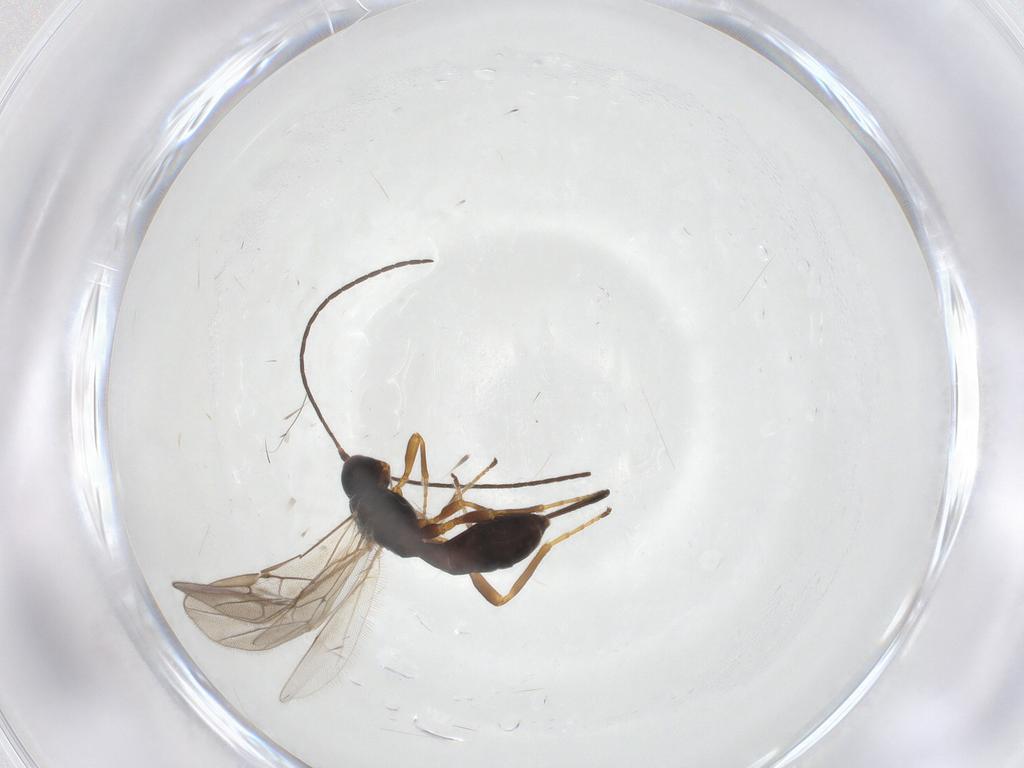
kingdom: Animalia
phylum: Arthropoda
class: Insecta
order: Hymenoptera
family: Braconidae
